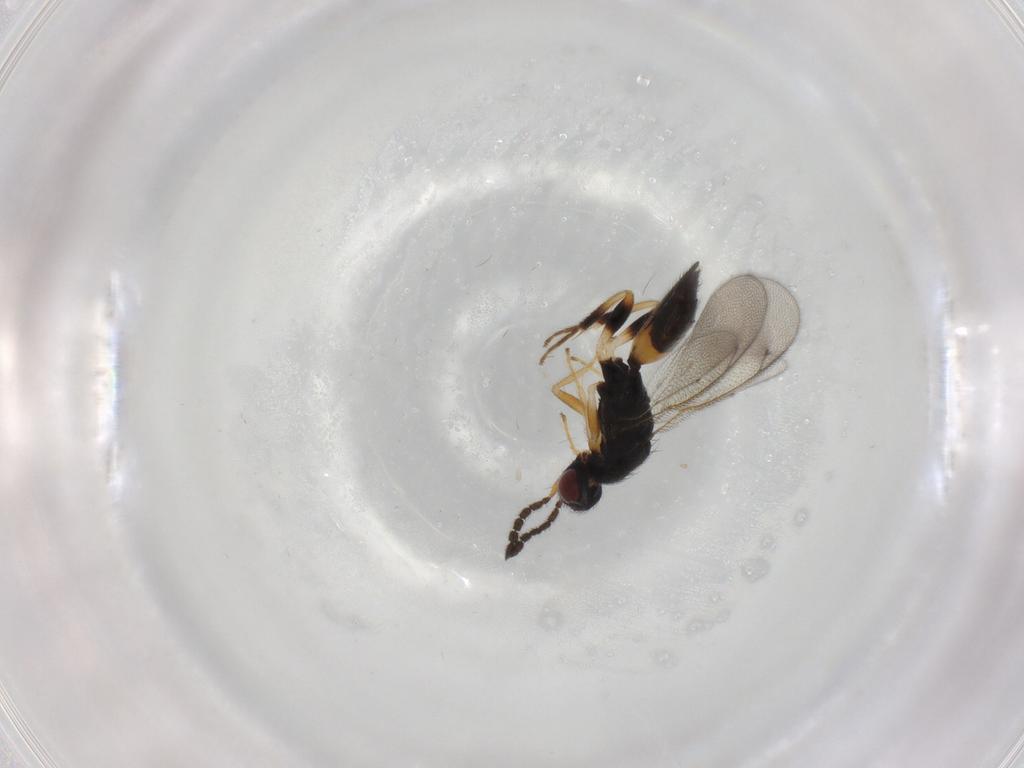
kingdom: Animalia
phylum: Arthropoda
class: Insecta
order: Hymenoptera
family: Eulophidae
